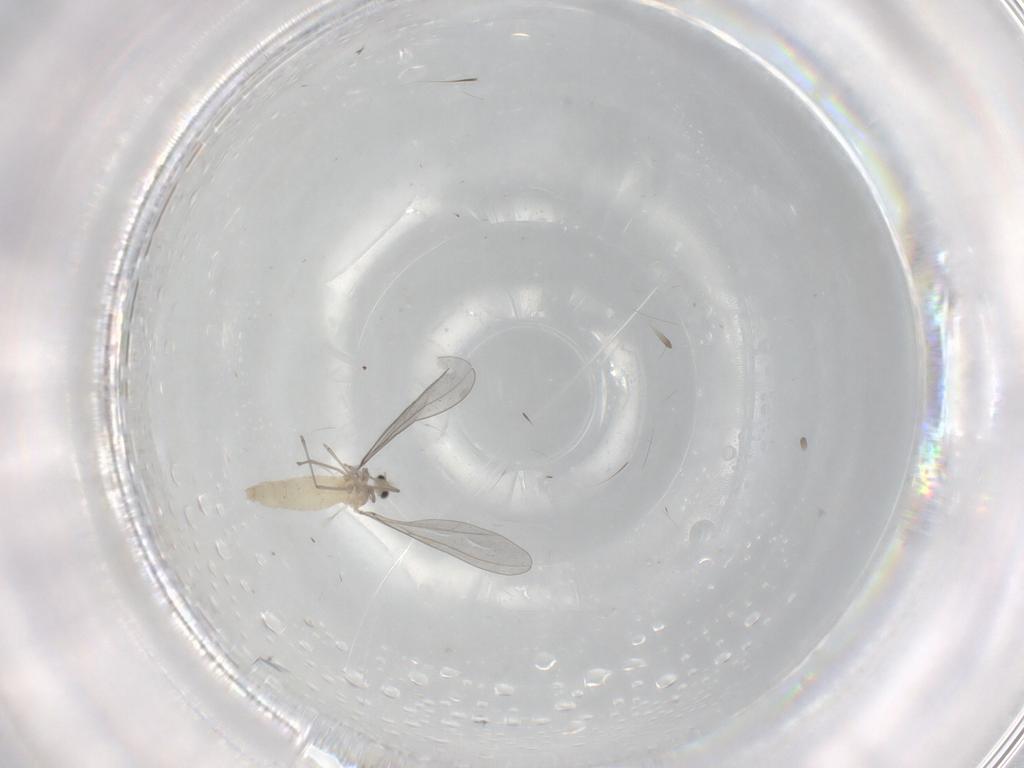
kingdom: Animalia
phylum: Arthropoda
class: Insecta
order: Diptera
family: Cecidomyiidae
